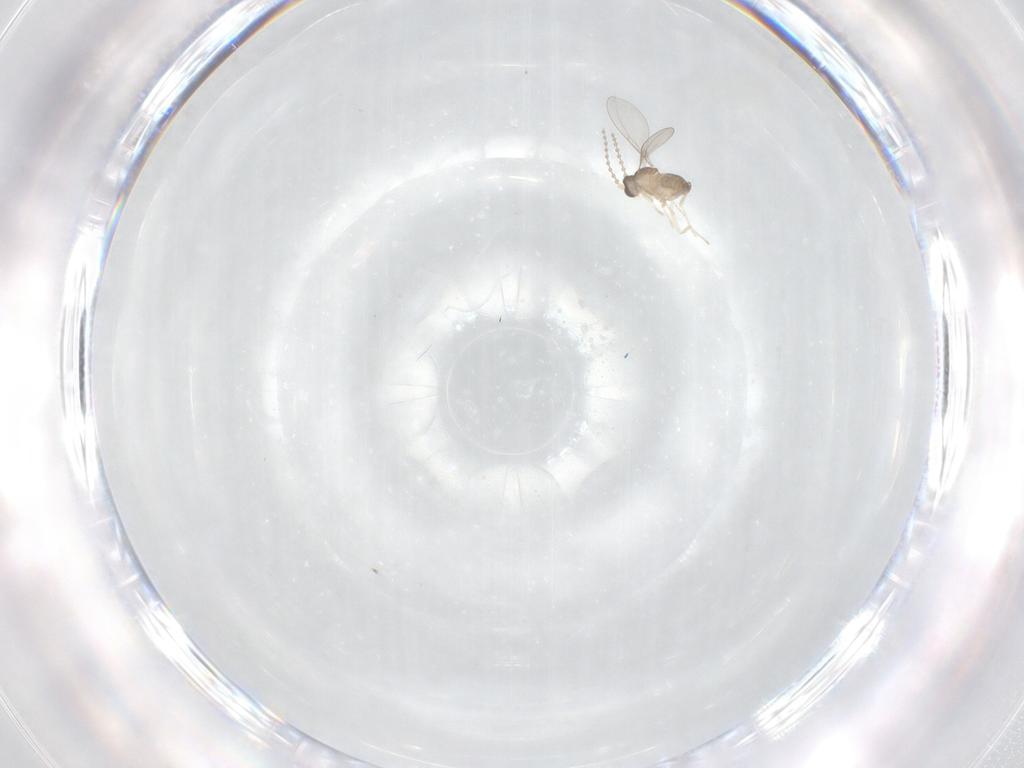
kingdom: Animalia
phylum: Arthropoda
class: Insecta
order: Diptera
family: Cecidomyiidae
